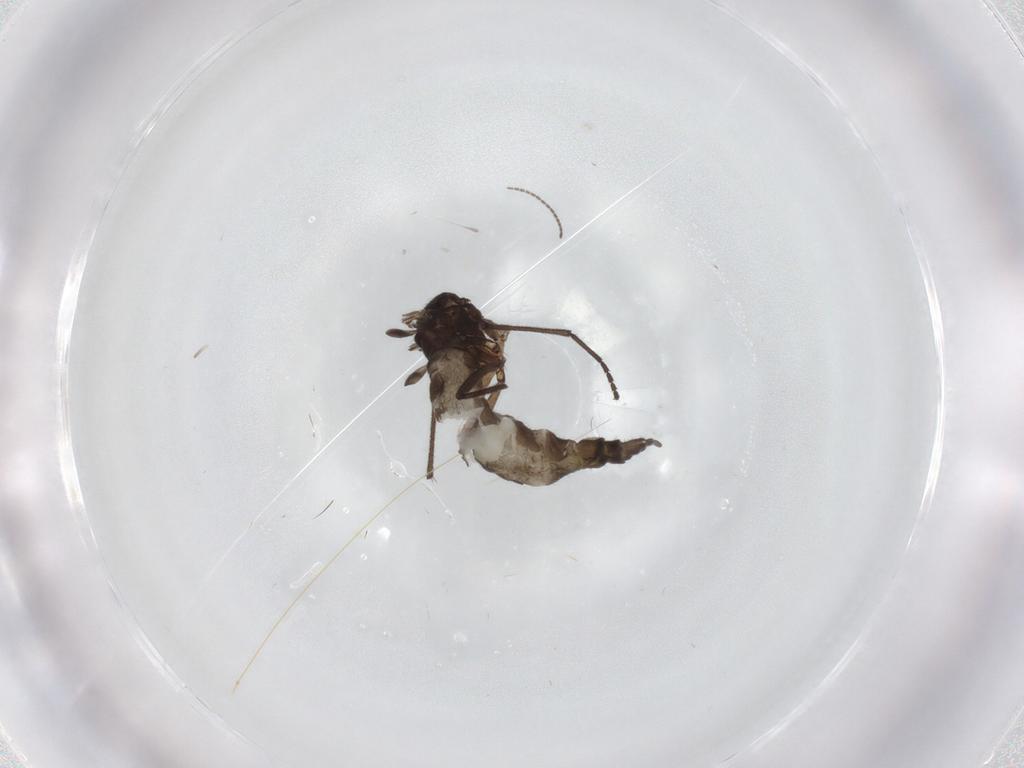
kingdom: Animalia
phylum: Arthropoda
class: Insecta
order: Diptera
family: Sciaridae
